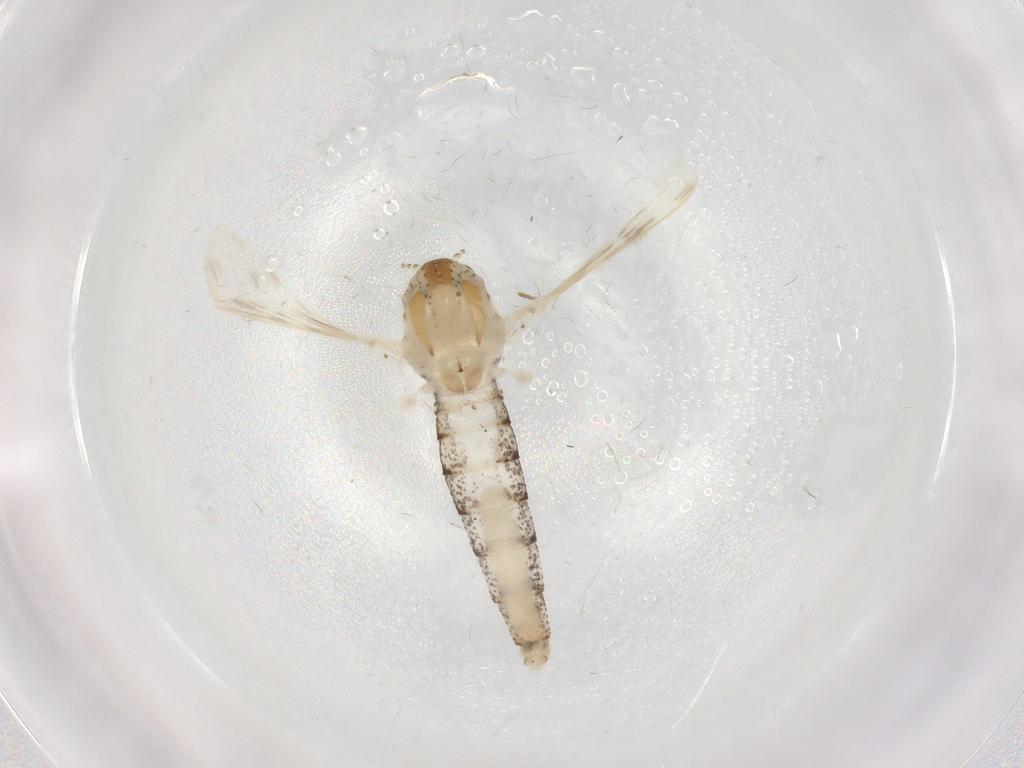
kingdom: Animalia
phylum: Arthropoda
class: Insecta
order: Diptera
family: Chaoboridae
